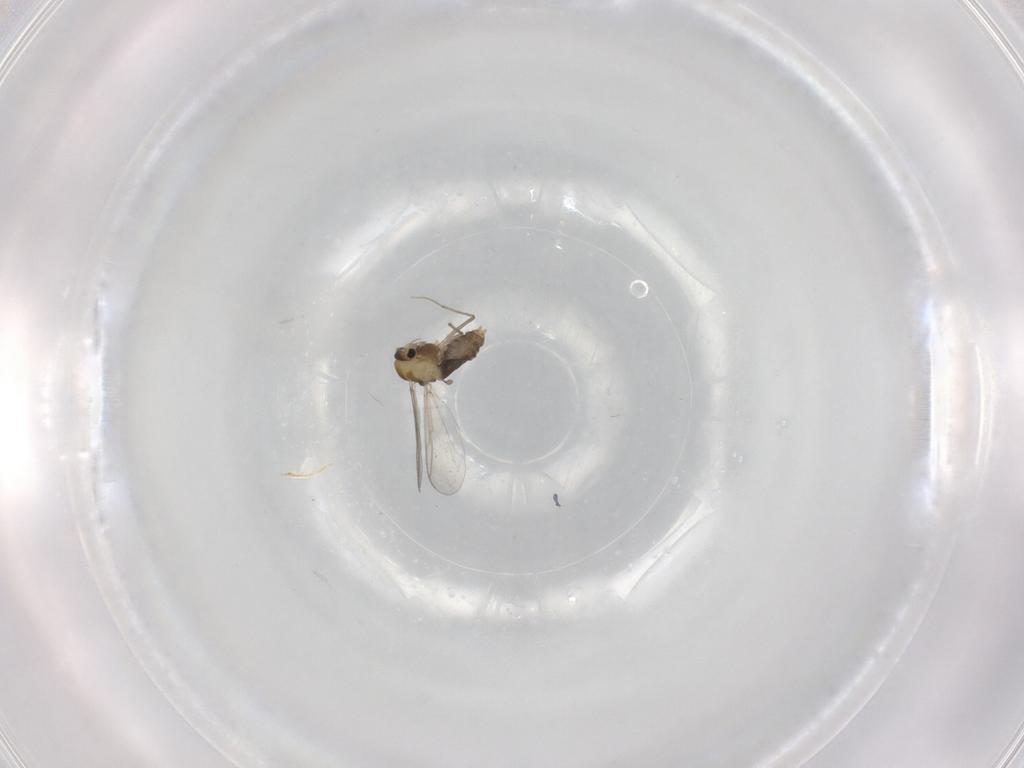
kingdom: Animalia
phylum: Arthropoda
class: Insecta
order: Diptera
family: Chironomidae
